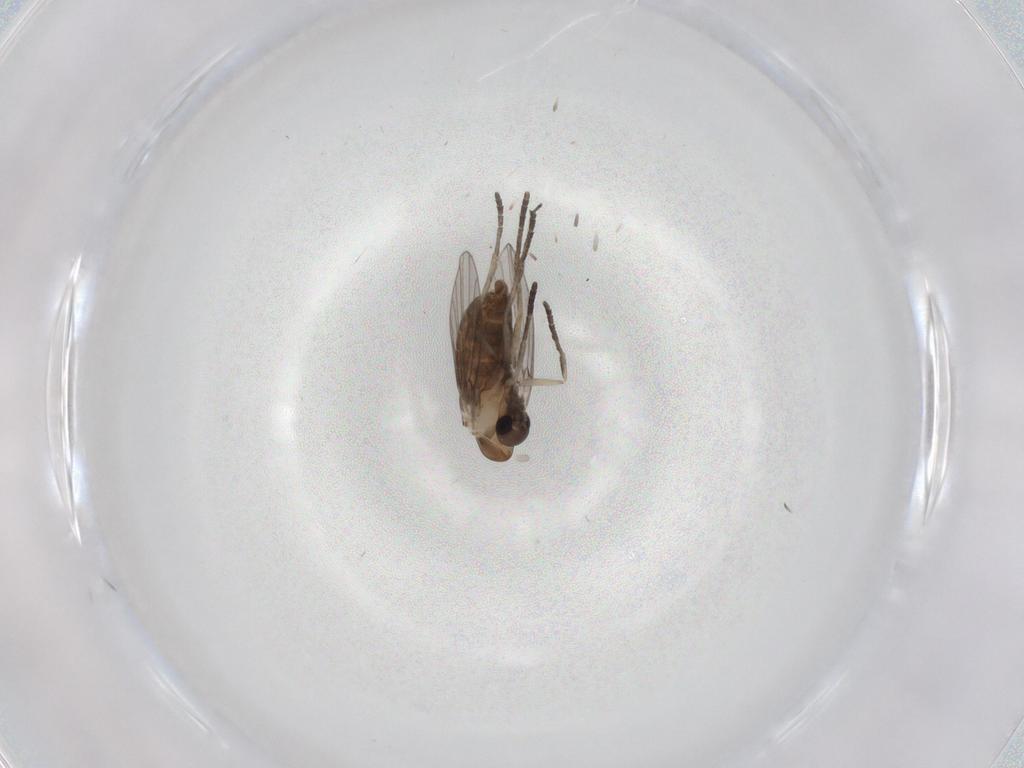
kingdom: Animalia
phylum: Arthropoda
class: Insecta
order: Diptera
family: Psychodidae
